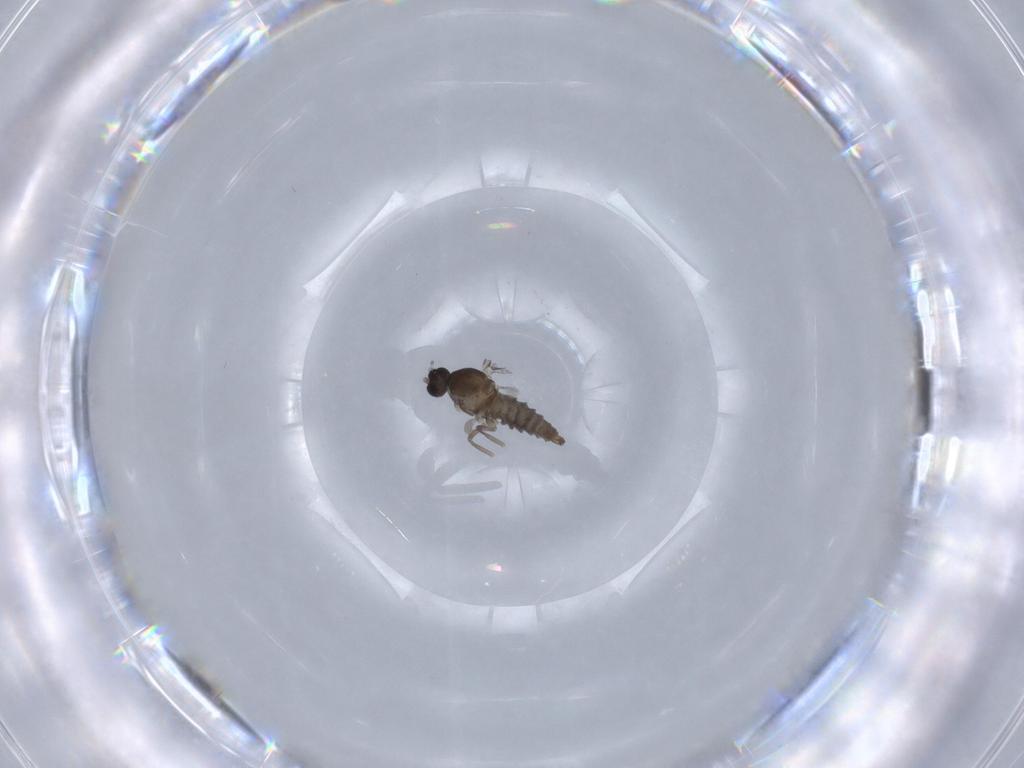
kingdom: Animalia
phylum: Arthropoda
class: Insecta
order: Diptera
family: Cecidomyiidae
